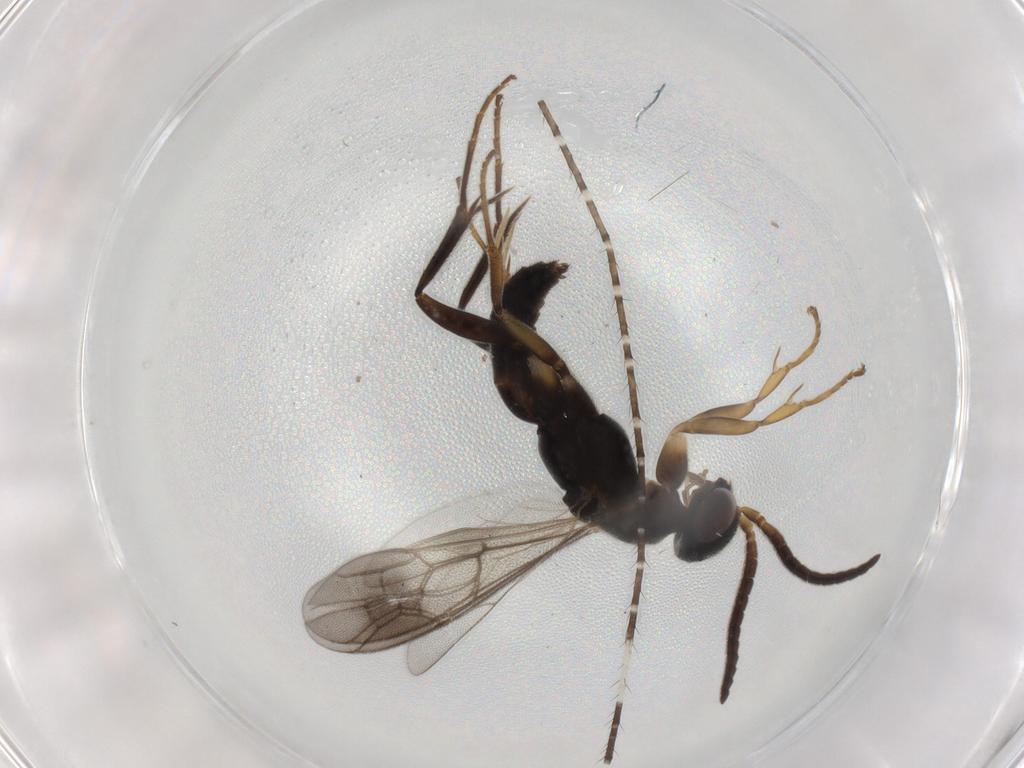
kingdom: Animalia
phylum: Arthropoda
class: Insecta
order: Hymenoptera
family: Pompilidae
